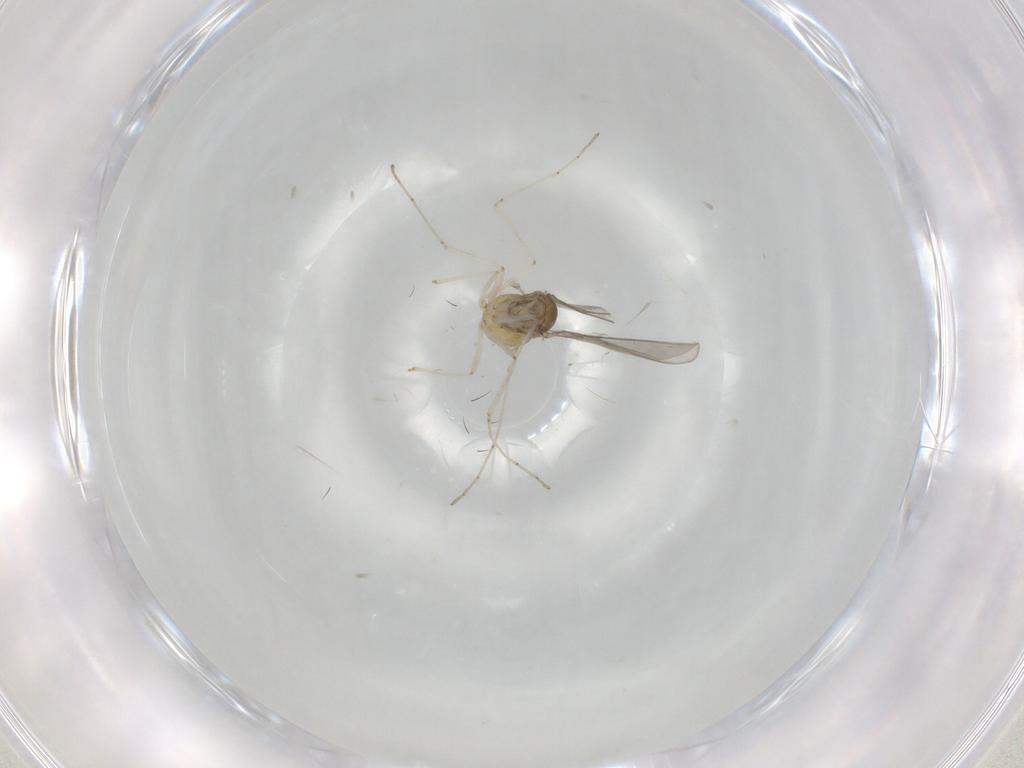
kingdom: Animalia
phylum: Arthropoda
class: Insecta
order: Diptera
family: Cecidomyiidae
